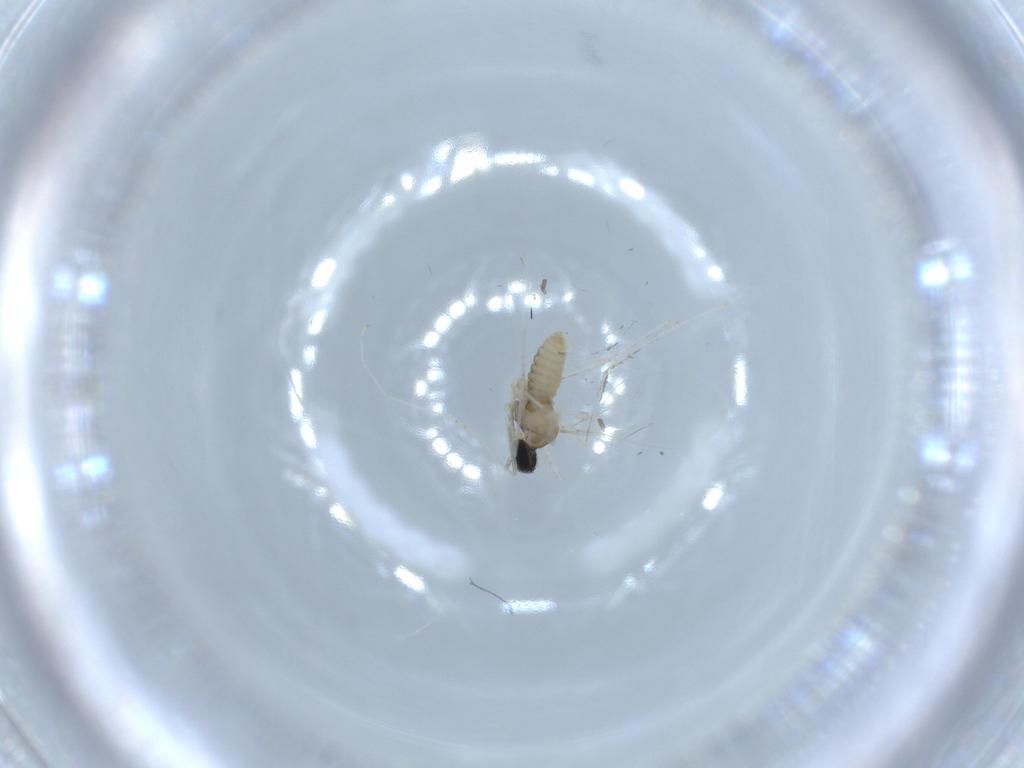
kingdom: Animalia
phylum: Arthropoda
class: Insecta
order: Diptera
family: Cecidomyiidae
